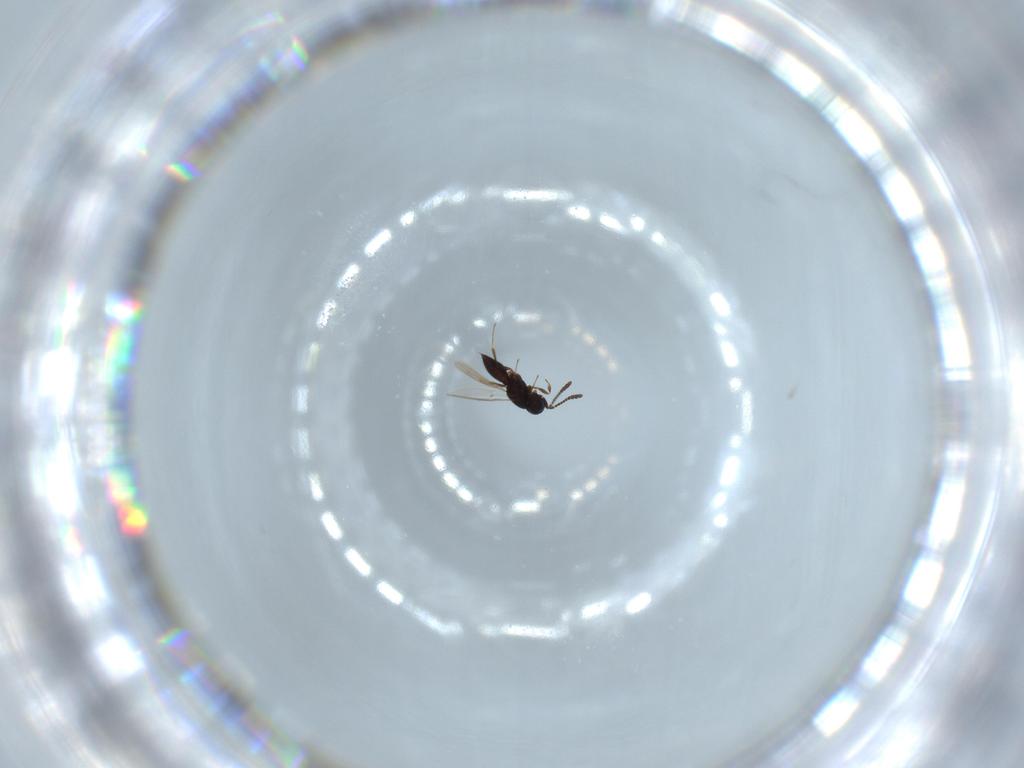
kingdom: Animalia
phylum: Arthropoda
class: Insecta
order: Hymenoptera
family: Scelionidae
